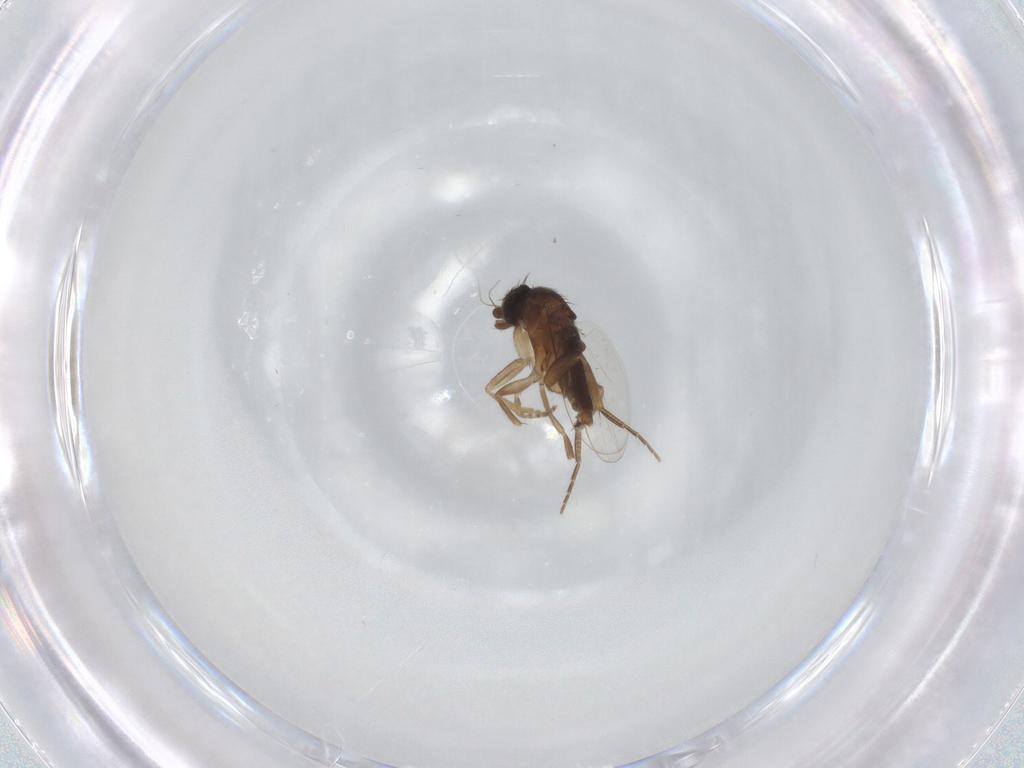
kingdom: Animalia
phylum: Arthropoda
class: Insecta
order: Diptera
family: Phoridae
